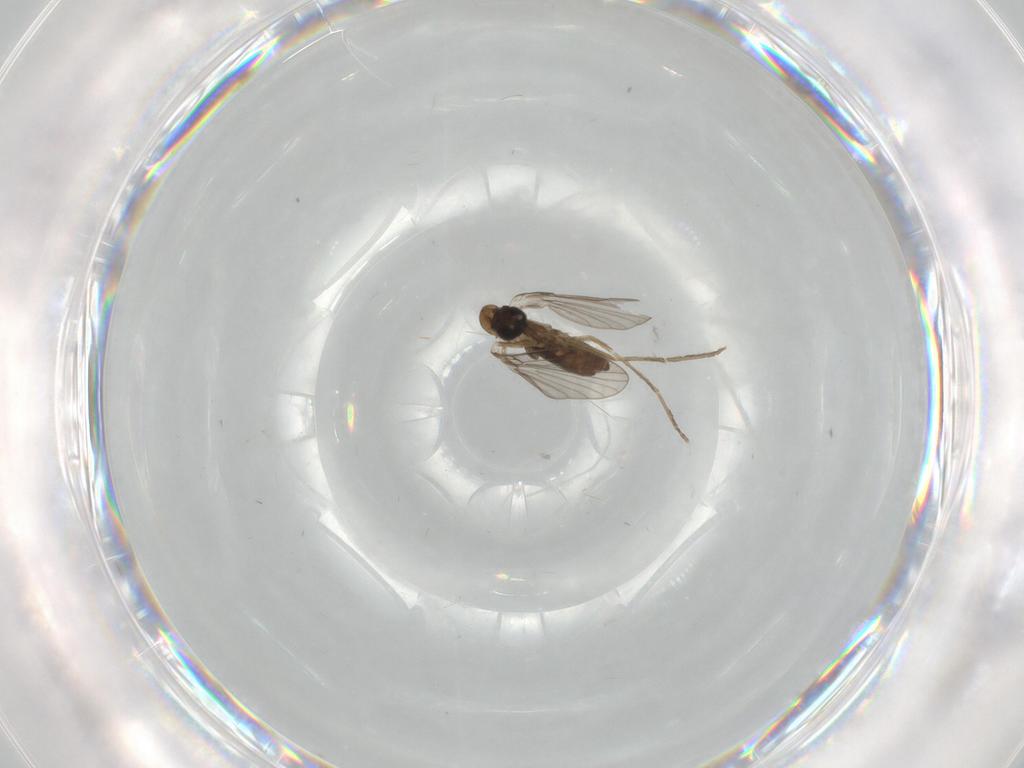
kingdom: Animalia
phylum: Arthropoda
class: Insecta
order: Diptera
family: Psychodidae
